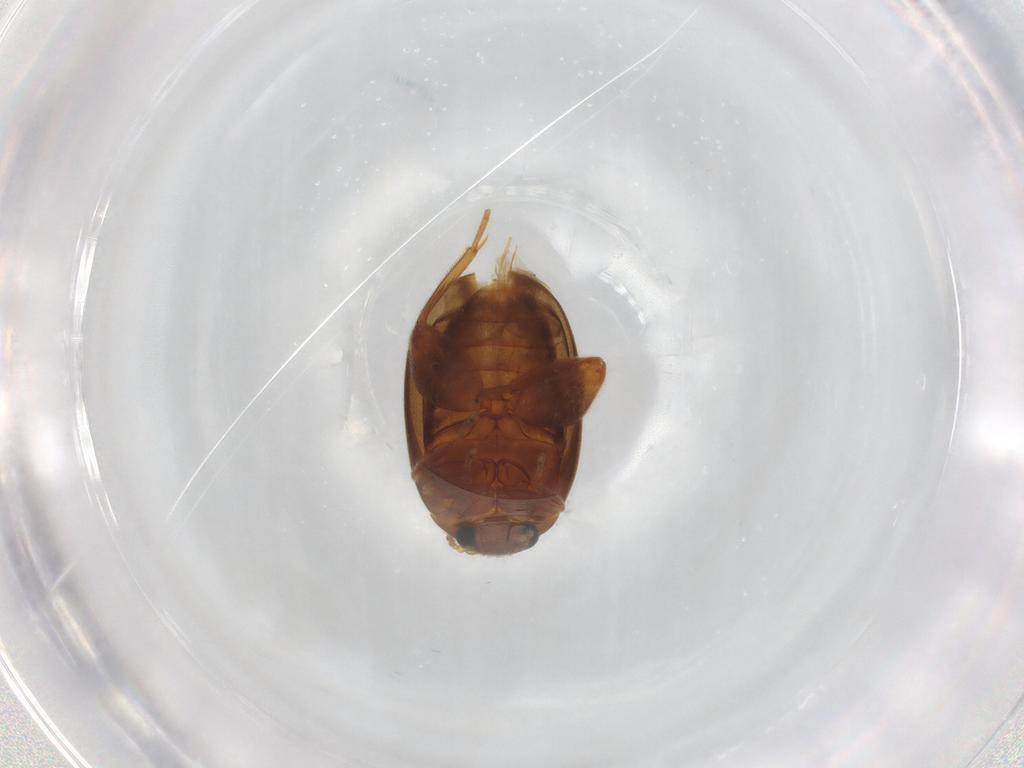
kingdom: Animalia
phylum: Arthropoda
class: Insecta
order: Coleoptera
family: Scirtidae
